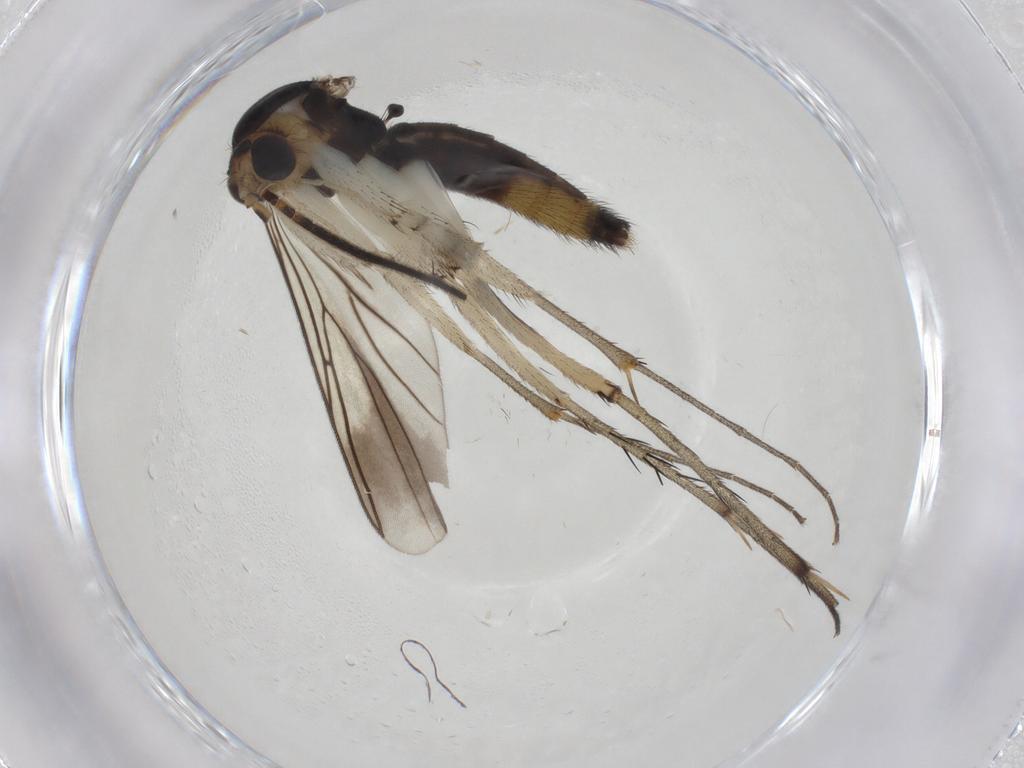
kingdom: Animalia
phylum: Arthropoda
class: Insecta
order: Diptera
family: Mycetophilidae
